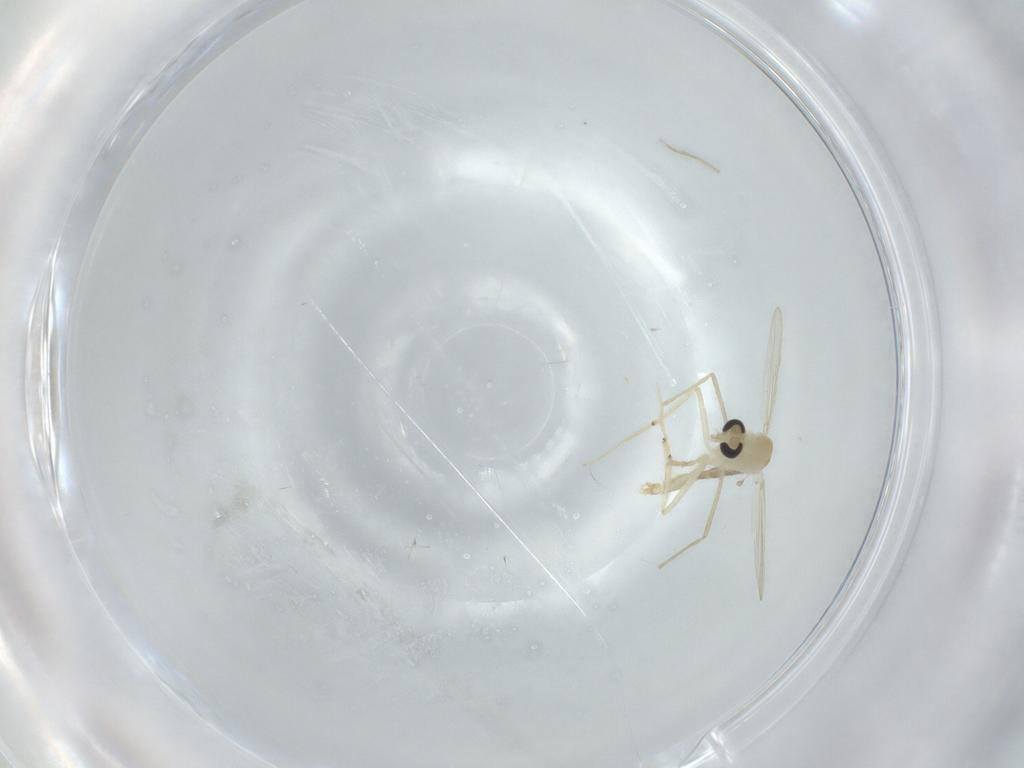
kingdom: Animalia
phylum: Arthropoda
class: Insecta
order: Diptera
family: Chironomidae
